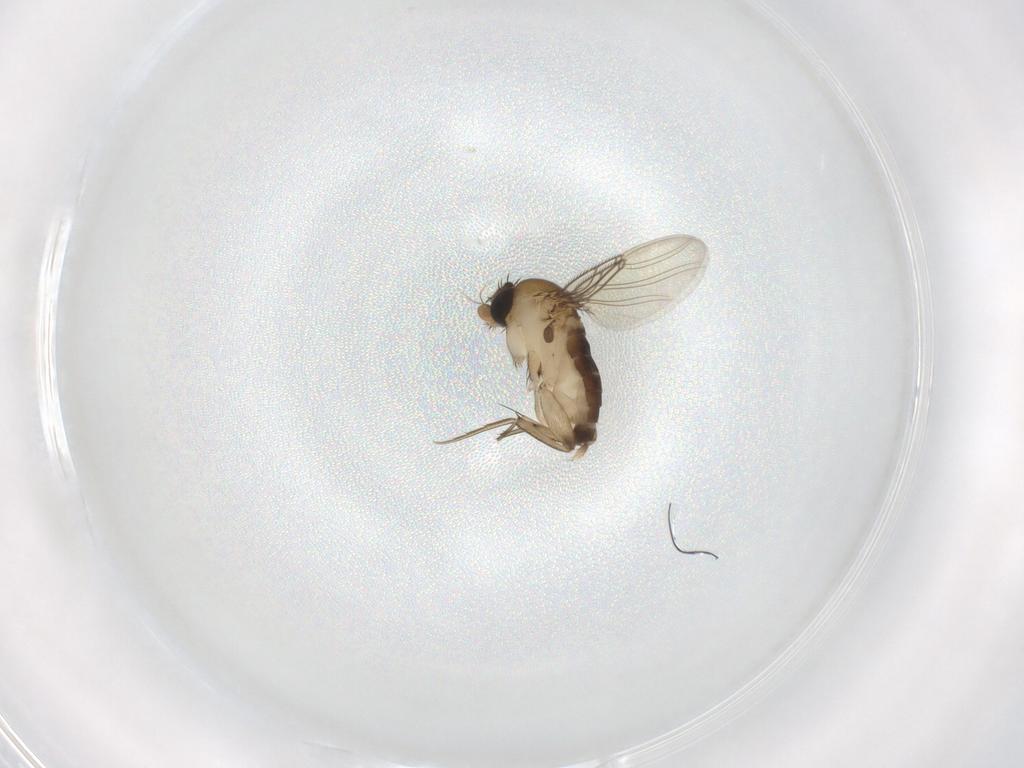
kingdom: Animalia
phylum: Arthropoda
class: Insecta
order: Diptera
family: Phoridae
